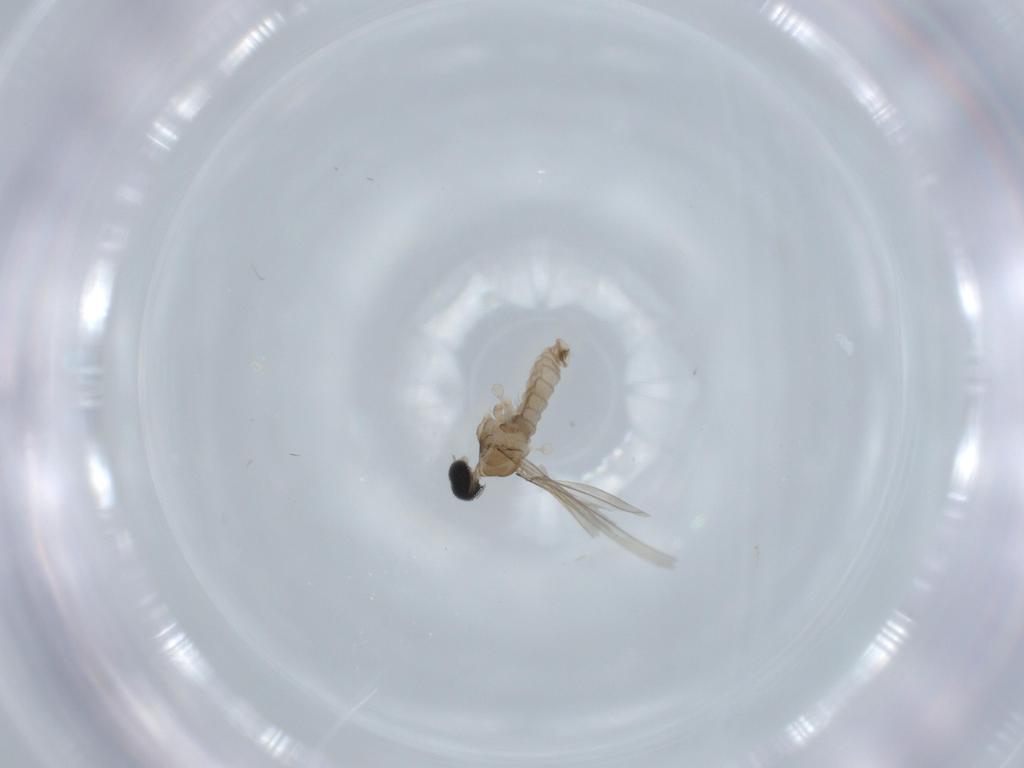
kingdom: Animalia
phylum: Arthropoda
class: Insecta
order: Diptera
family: Cecidomyiidae
